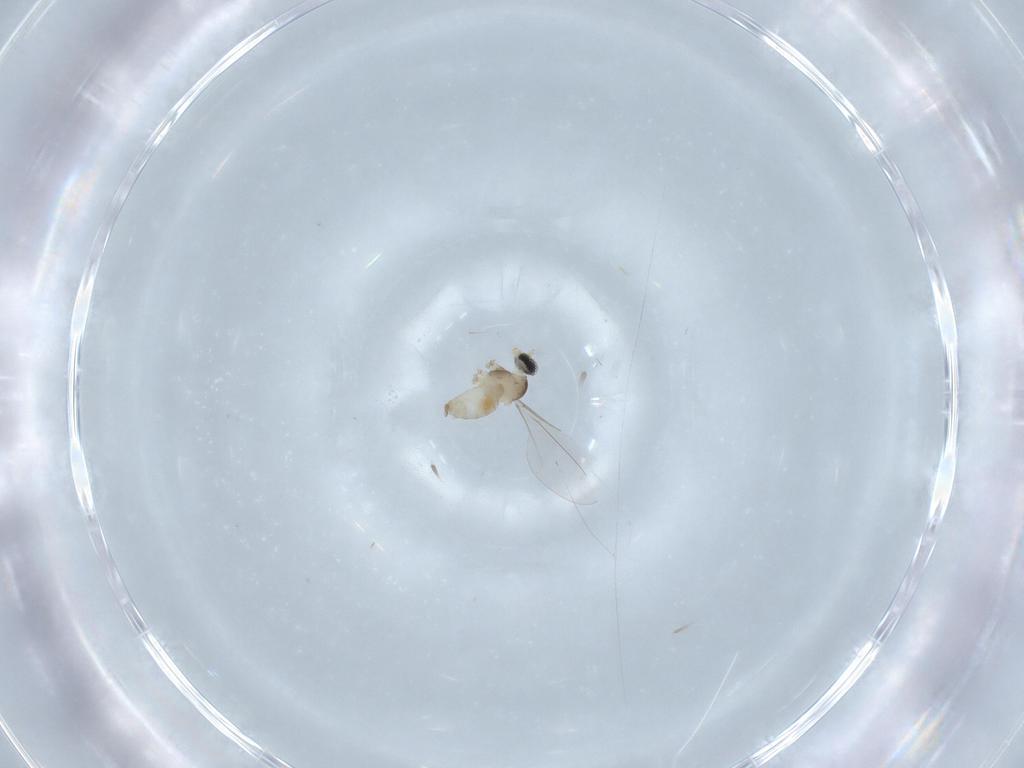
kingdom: Animalia
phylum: Arthropoda
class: Insecta
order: Diptera
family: Cecidomyiidae
